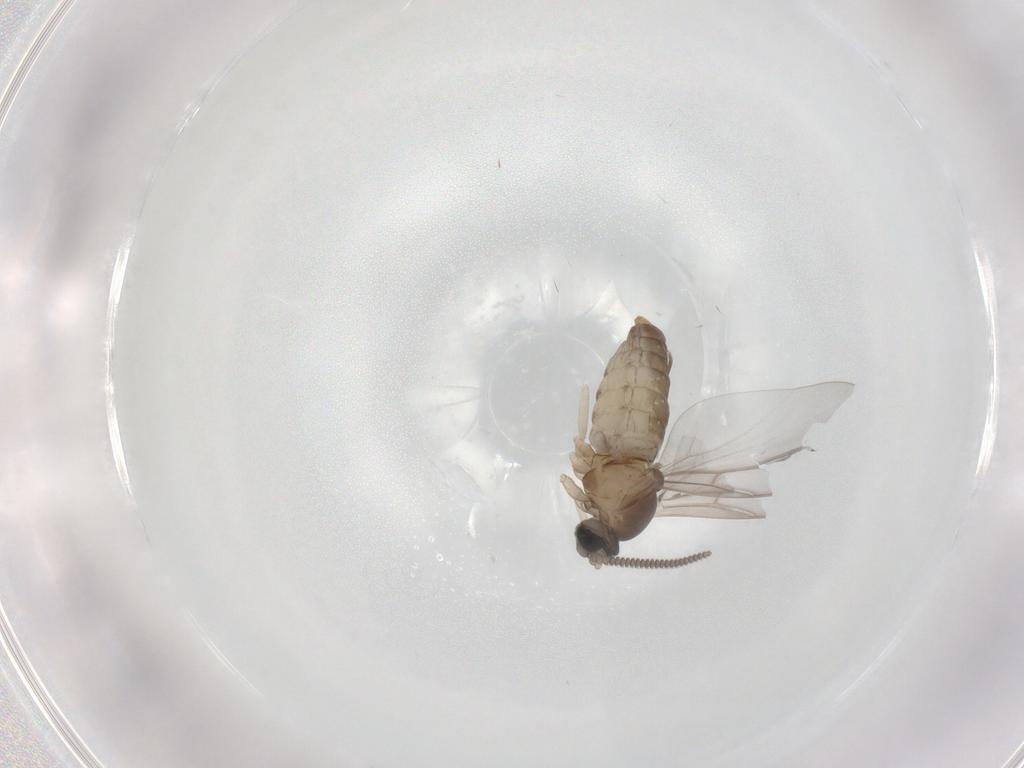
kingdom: Animalia
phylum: Arthropoda
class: Insecta
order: Diptera
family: Cecidomyiidae
